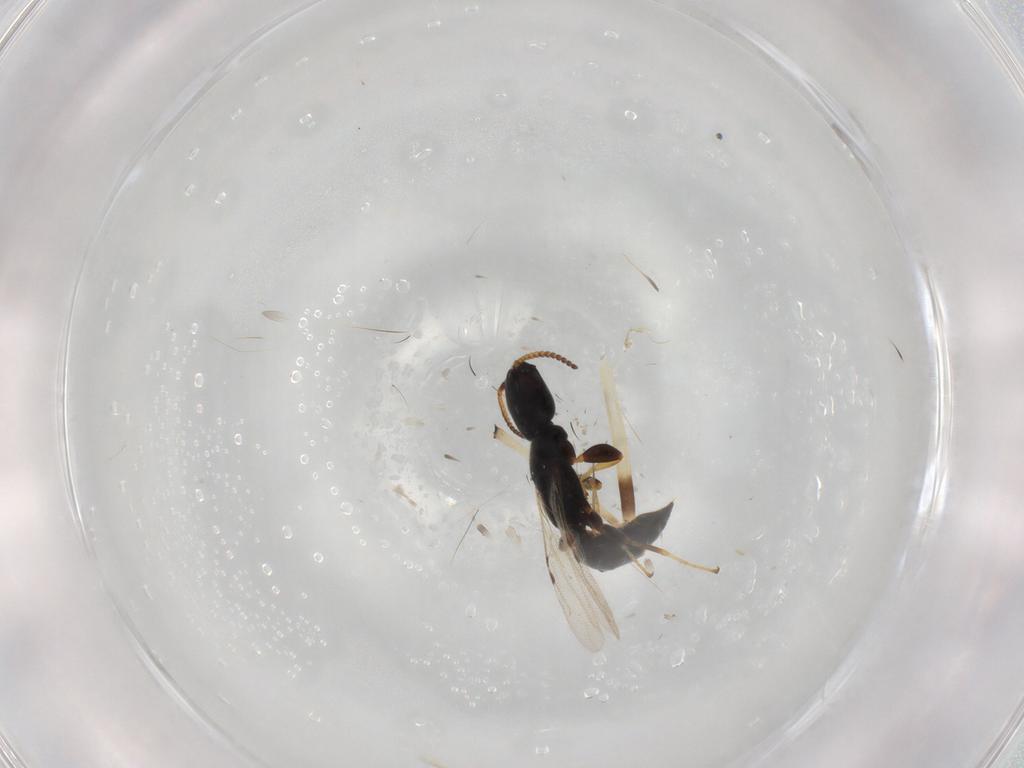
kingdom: Animalia
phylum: Arthropoda
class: Insecta
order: Hymenoptera
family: Bethylidae
